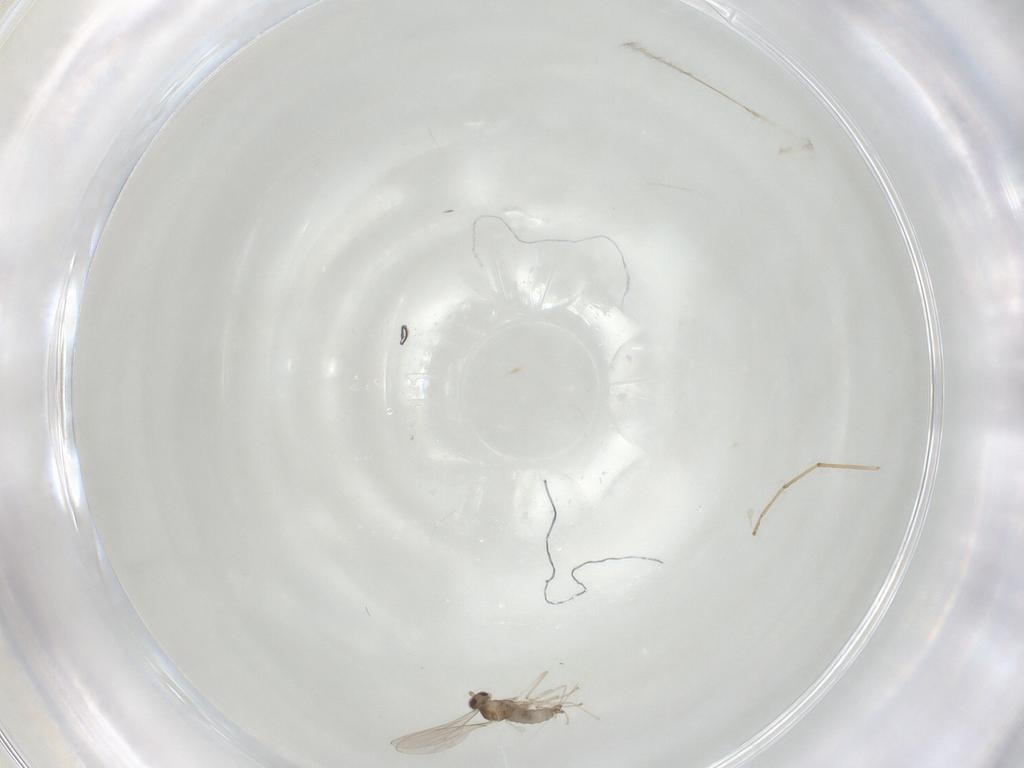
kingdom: Animalia
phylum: Arthropoda
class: Insecta
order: Diptera
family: Cecidomyiidae
